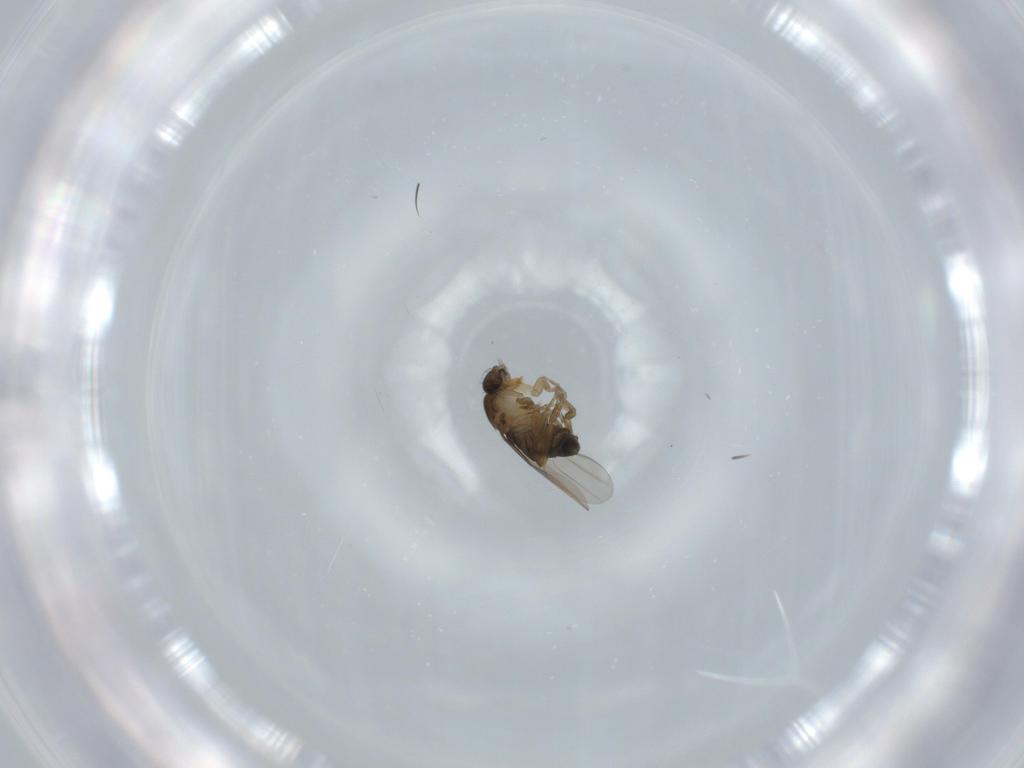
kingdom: Animalia
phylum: Arthropoda
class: Insecta
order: Diptera
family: Phoridae
